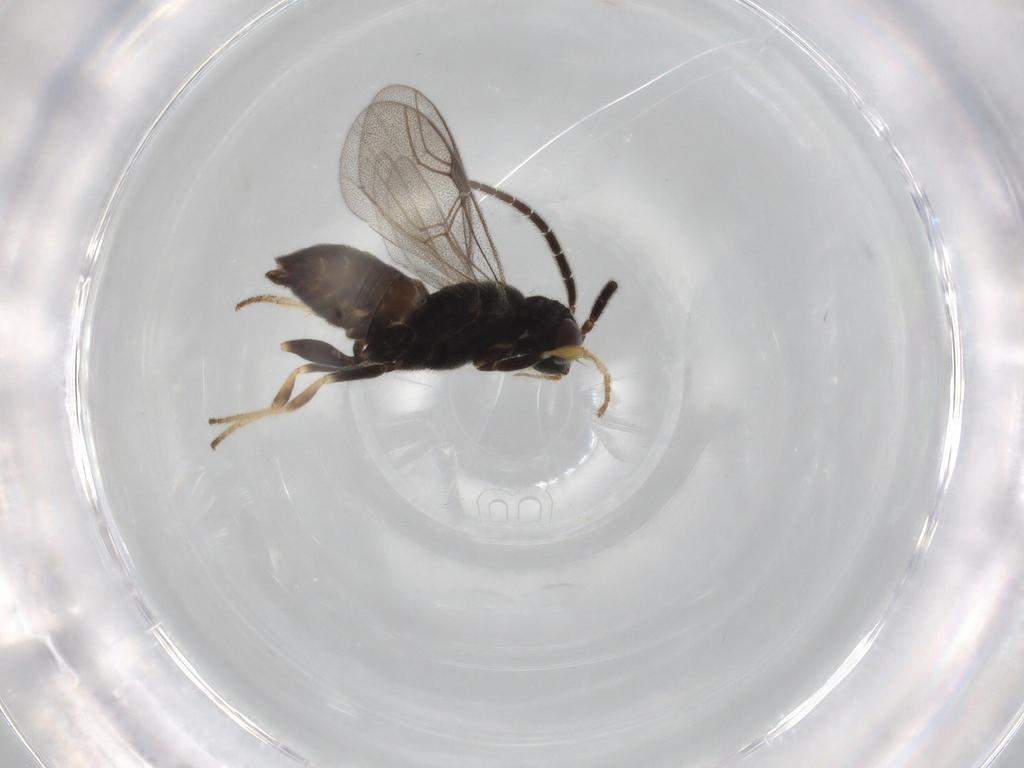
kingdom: Animalia
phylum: Arthropoda
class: Insecta
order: Hymenoptera
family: Dryinidae
